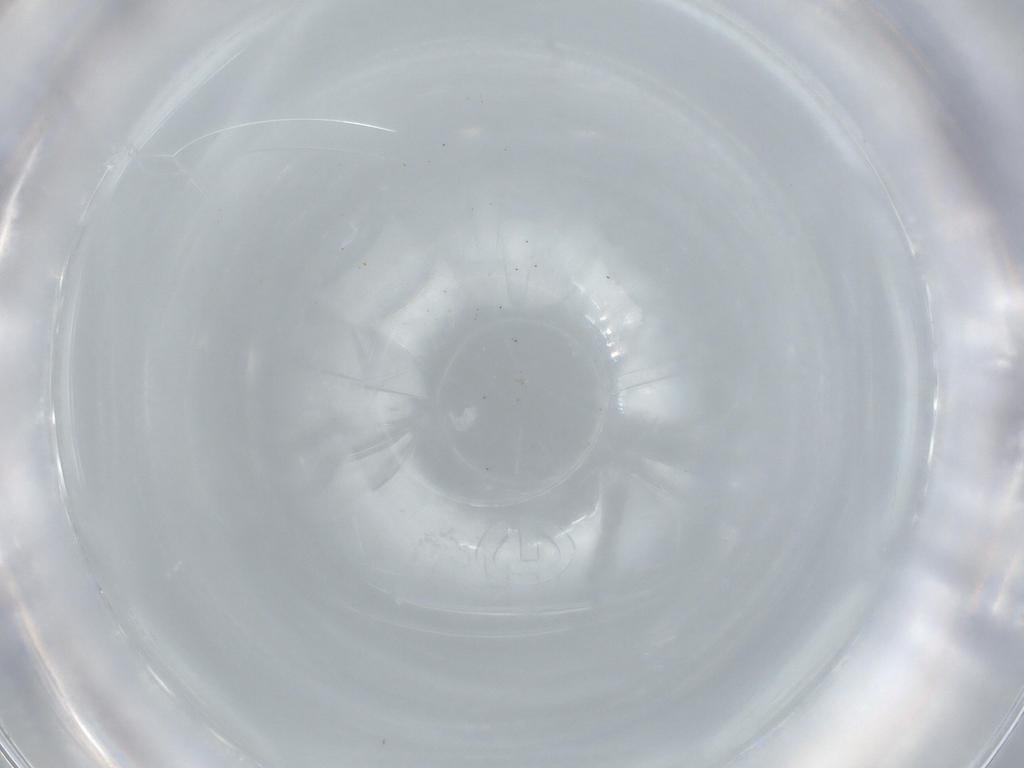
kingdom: Animalia
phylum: Arthropoda
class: Insecta
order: Diptera
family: Cecidomyiidae
